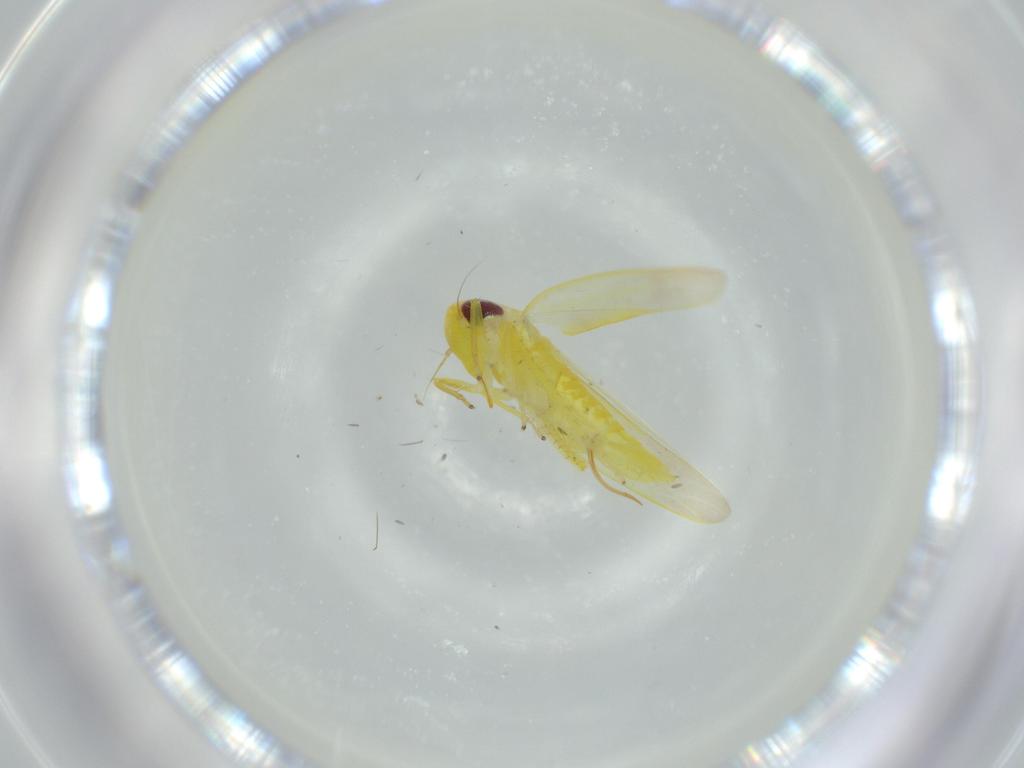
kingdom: Animalia
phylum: Arthropoda
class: Insecta
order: Hemiptera
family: Cicadellidae
